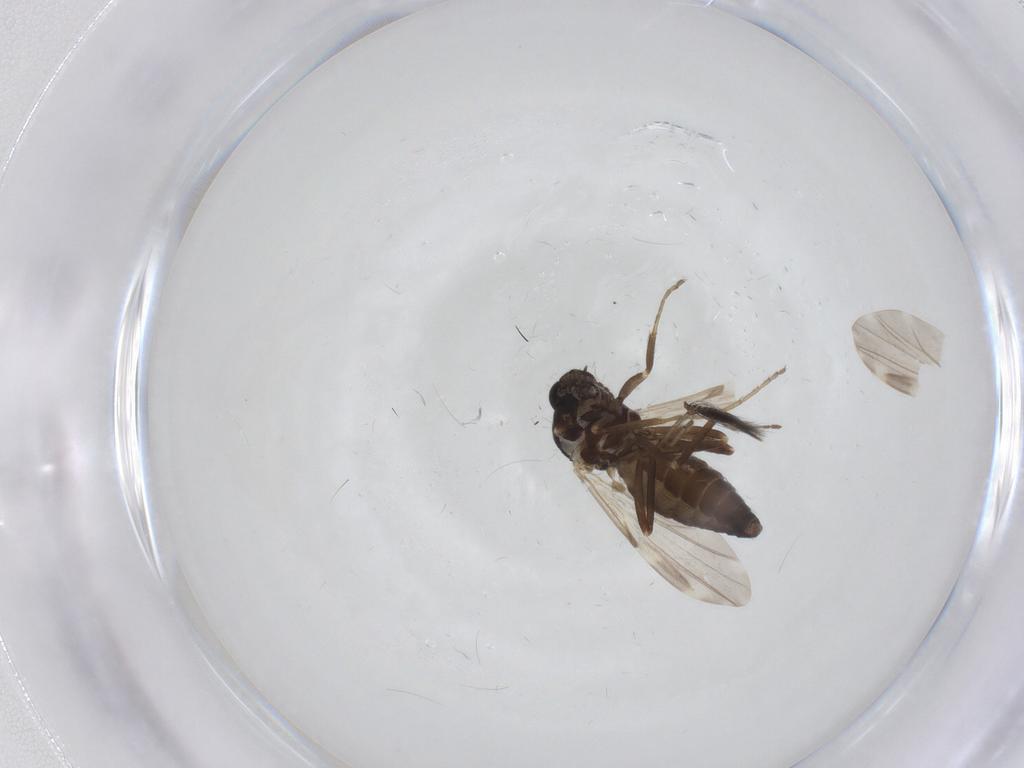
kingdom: Animalia
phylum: Arthropoda
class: Insecta
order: Diptera
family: Ceratopogonidae
